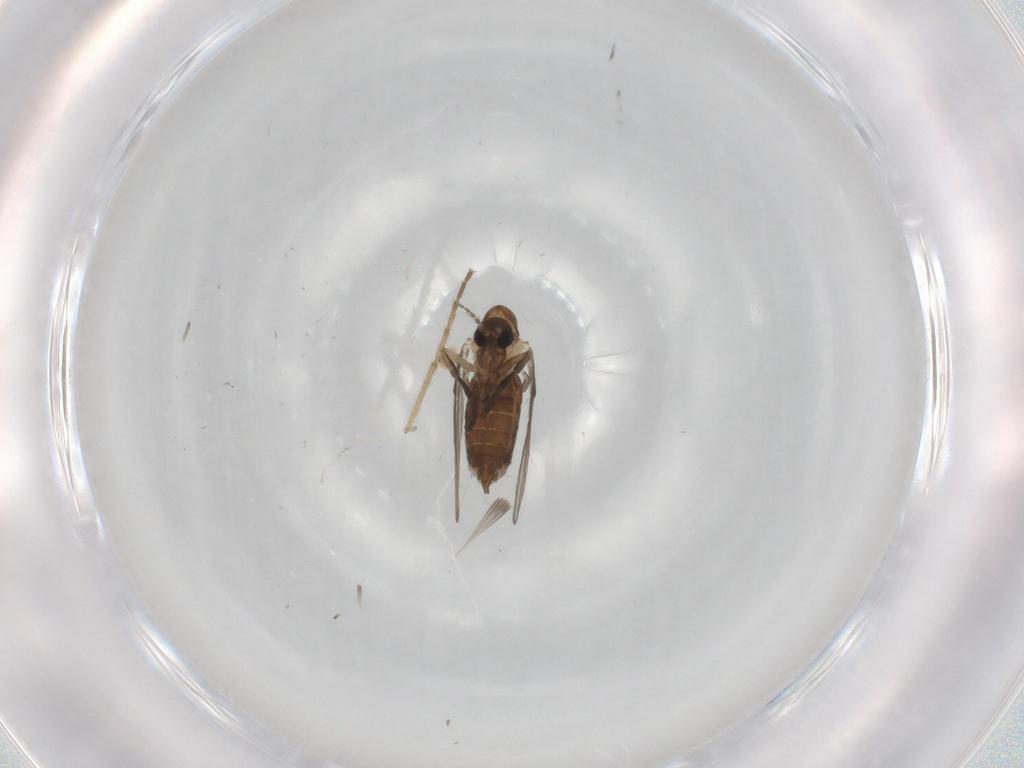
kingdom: Animalia
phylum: Arthropoda
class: Insecta
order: Diptera
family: Psychodidae
